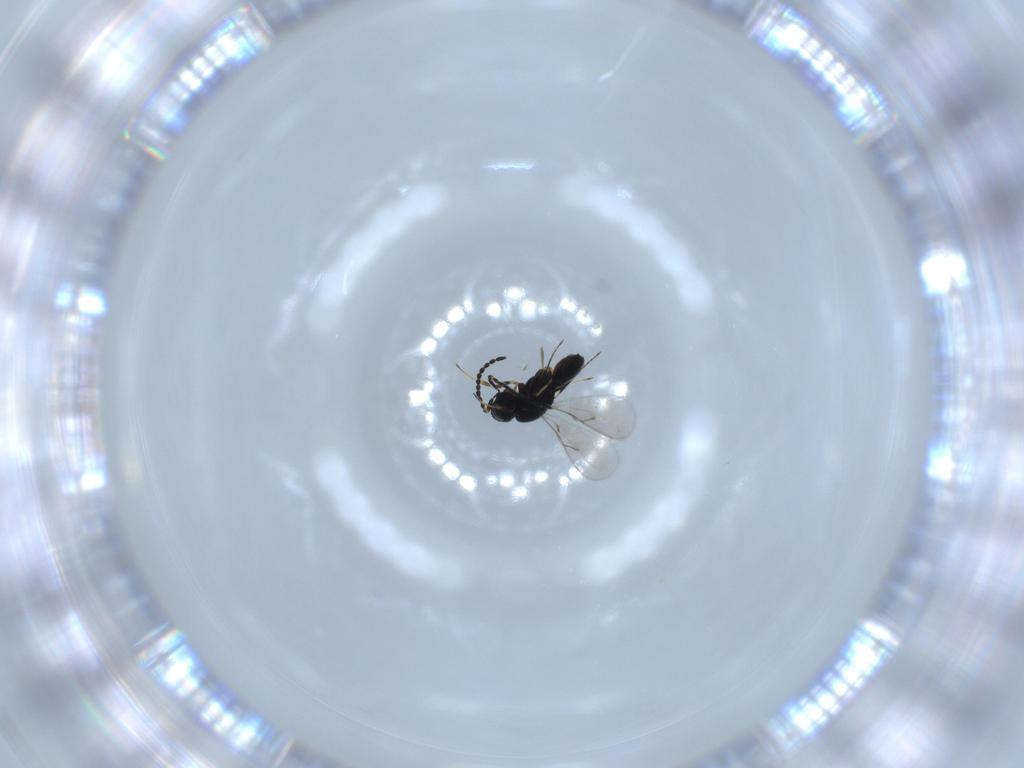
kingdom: Animalia
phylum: Arthropoda
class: Insecta
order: Hymenoptera
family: Scelionidae
